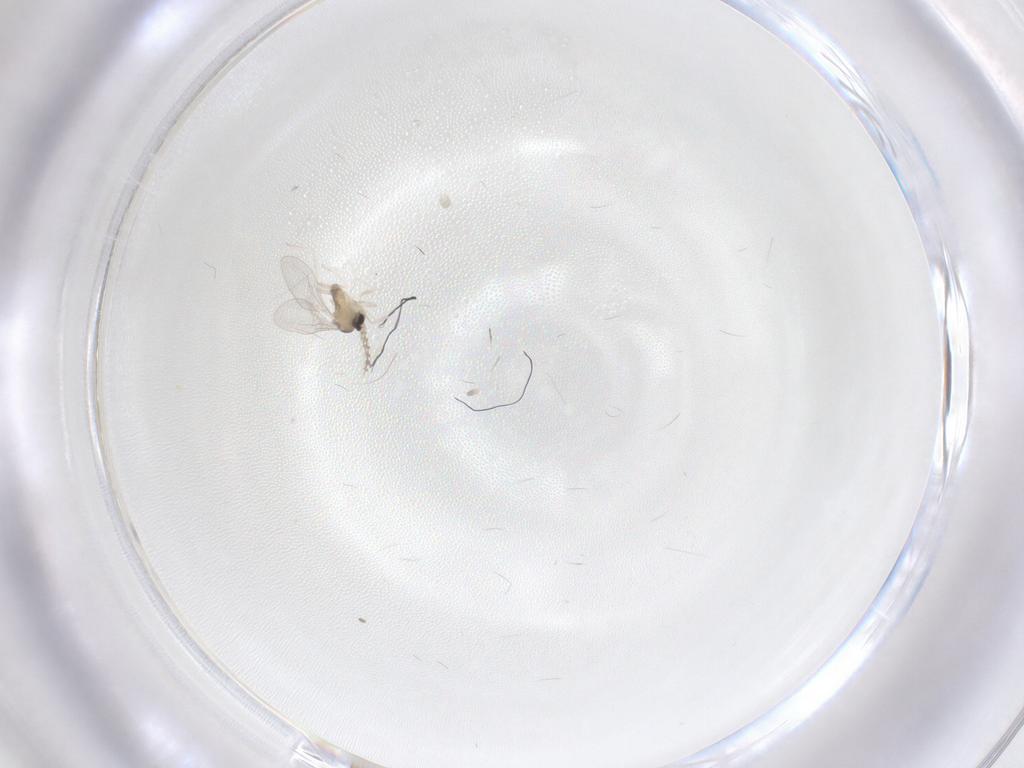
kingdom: Animalia
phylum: Arthropoda
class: Insecta
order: Diptera
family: Cecidomyiidae
